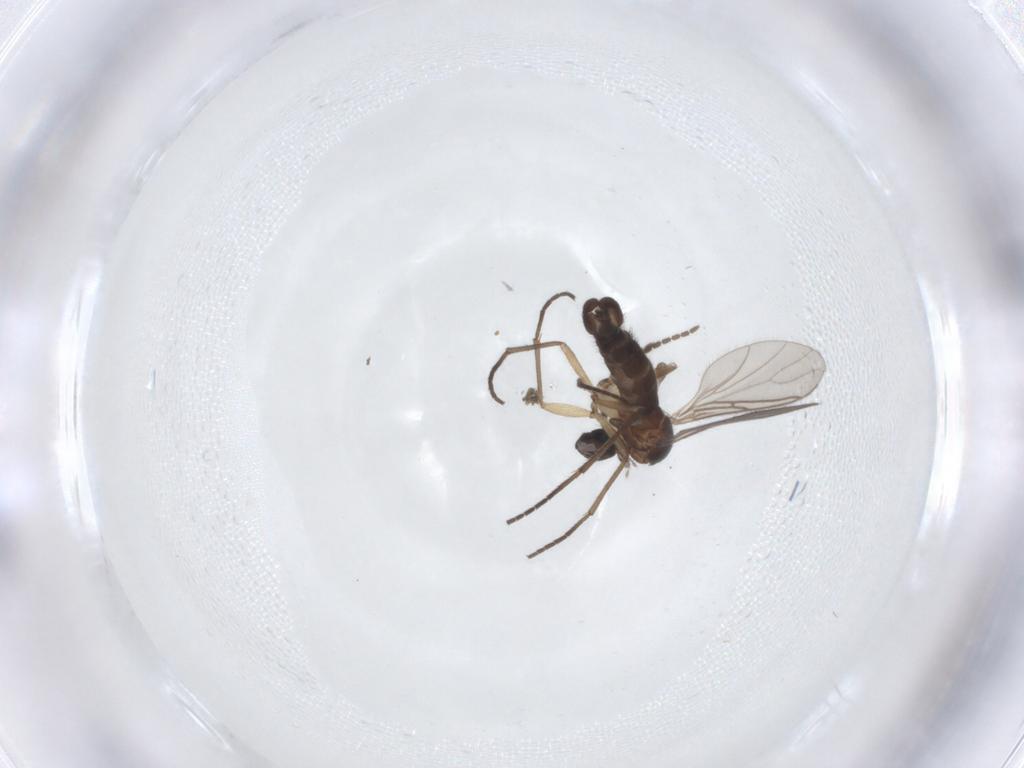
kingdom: Animalia
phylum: Arthropoda
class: Insecta
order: Diptera
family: Sciaridae
